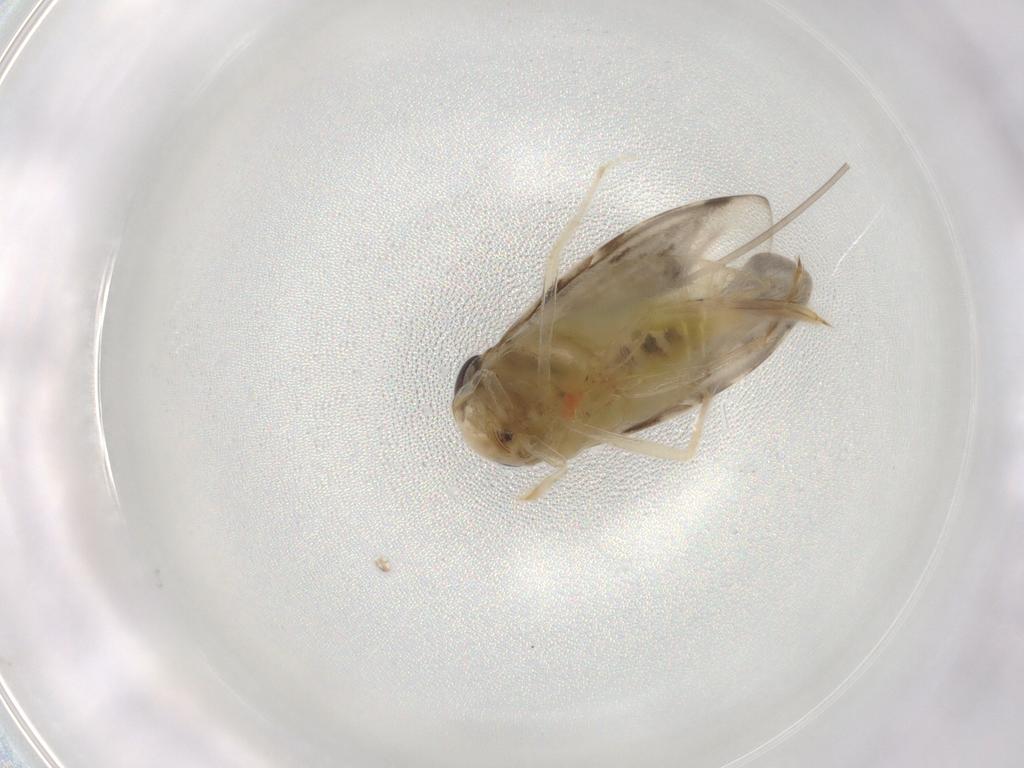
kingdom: Animalia
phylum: Arthropoda
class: Insecta
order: Hemiptera
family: Corixidae
